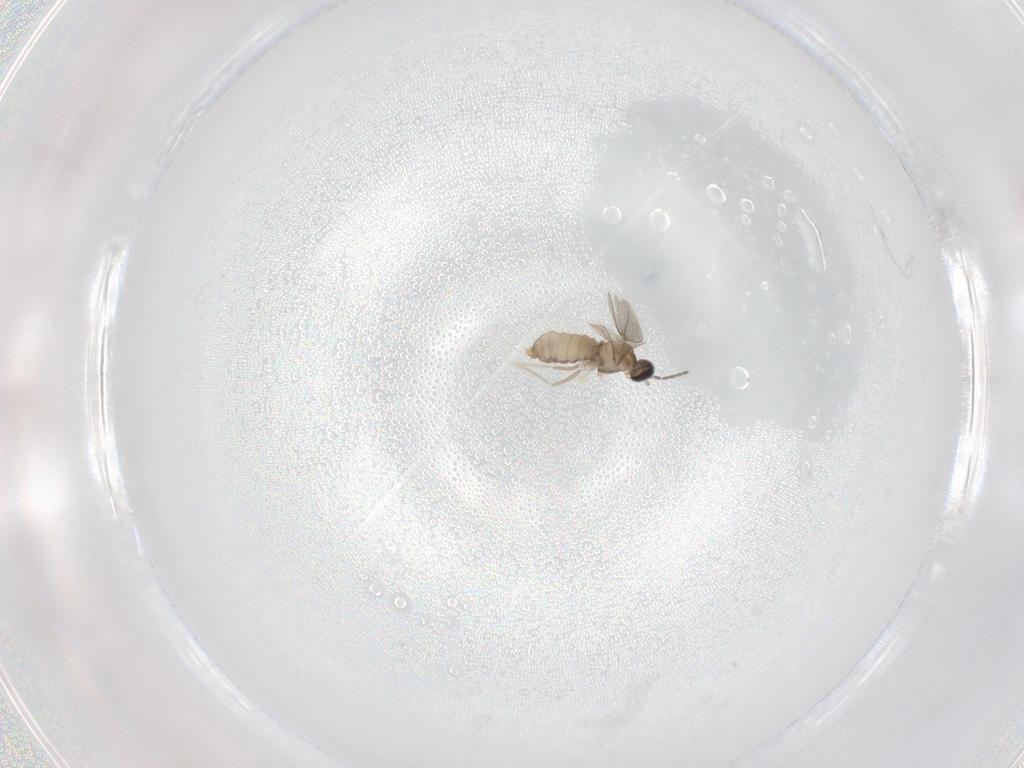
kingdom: Animalia
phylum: Arthropoda
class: Insecta
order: Diptera
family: Cecidomyiidae
